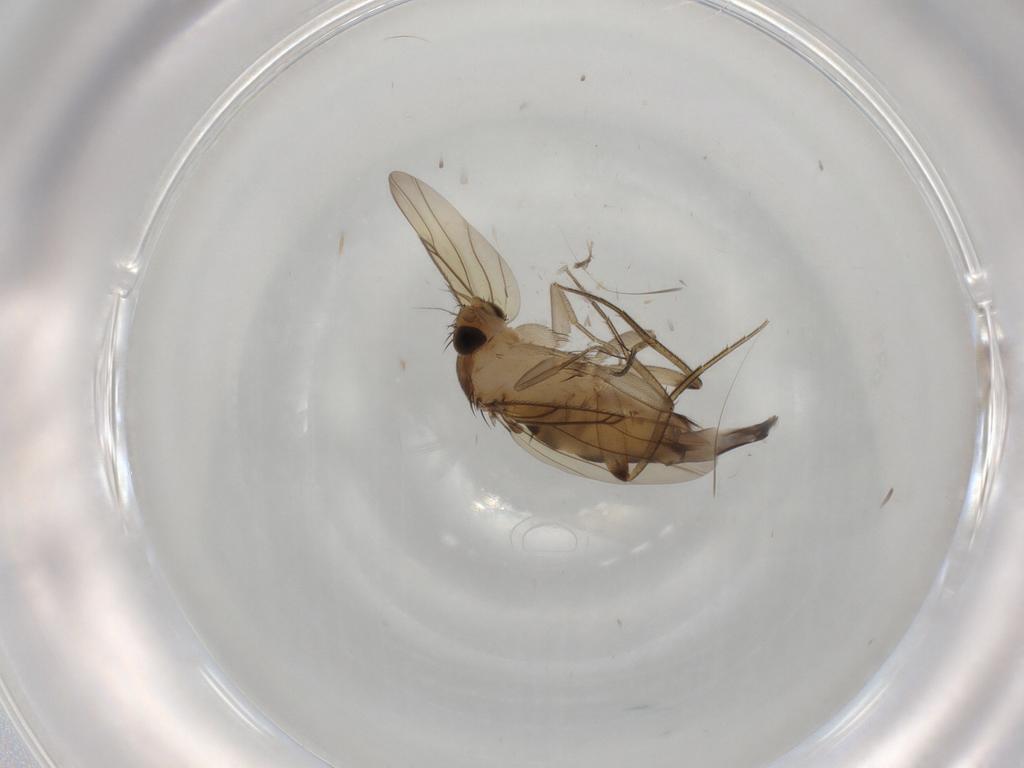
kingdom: Animalia
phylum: Arthropoda
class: Insecta
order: Diptera
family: Phoridae
